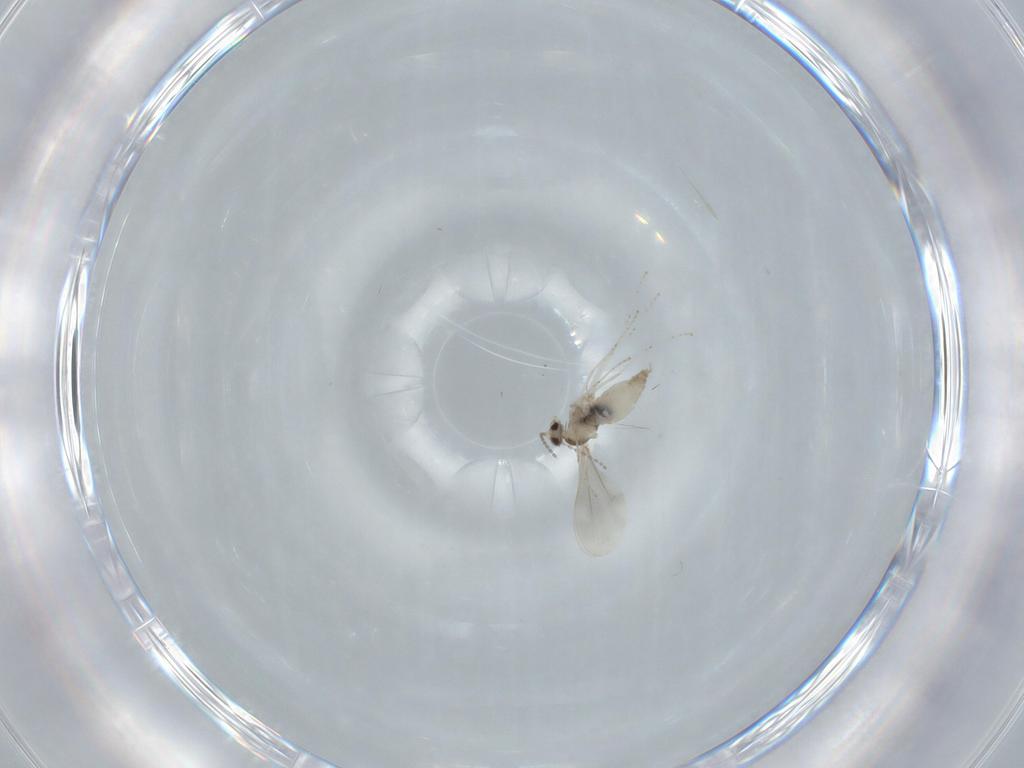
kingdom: Animalia
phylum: Arthropoda
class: Insecta
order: Diptera
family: Cecidomyiidae
